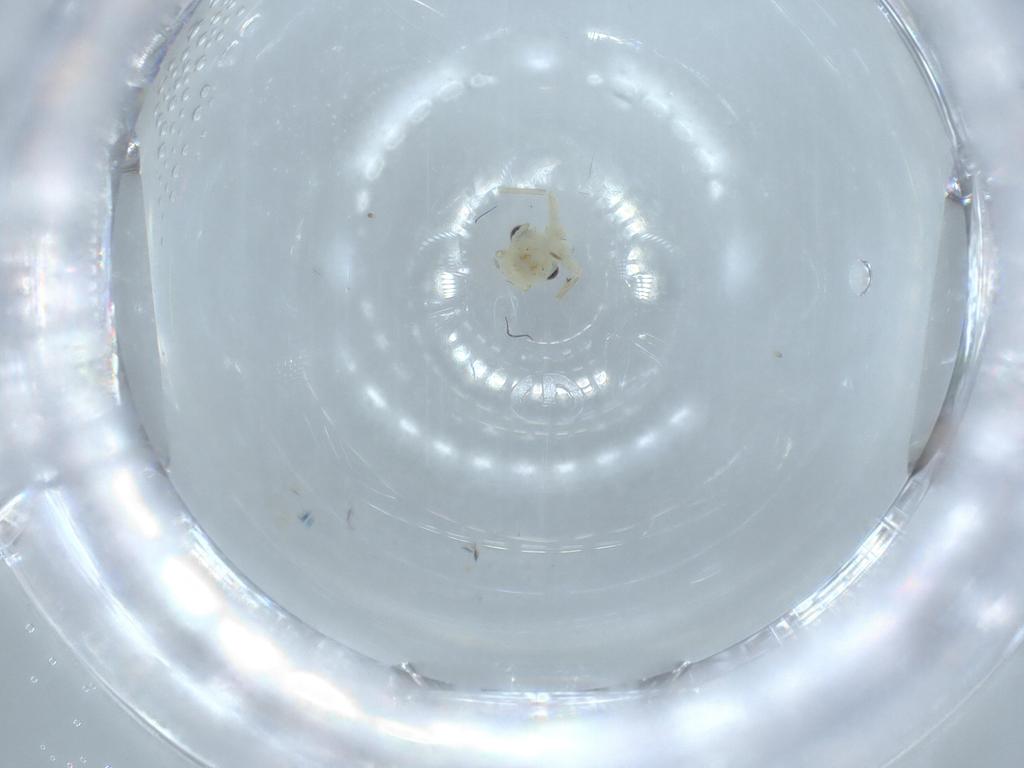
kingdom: Animalia
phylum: Arthropoda
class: Insecta
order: Psocodea
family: Caeciliusidae
